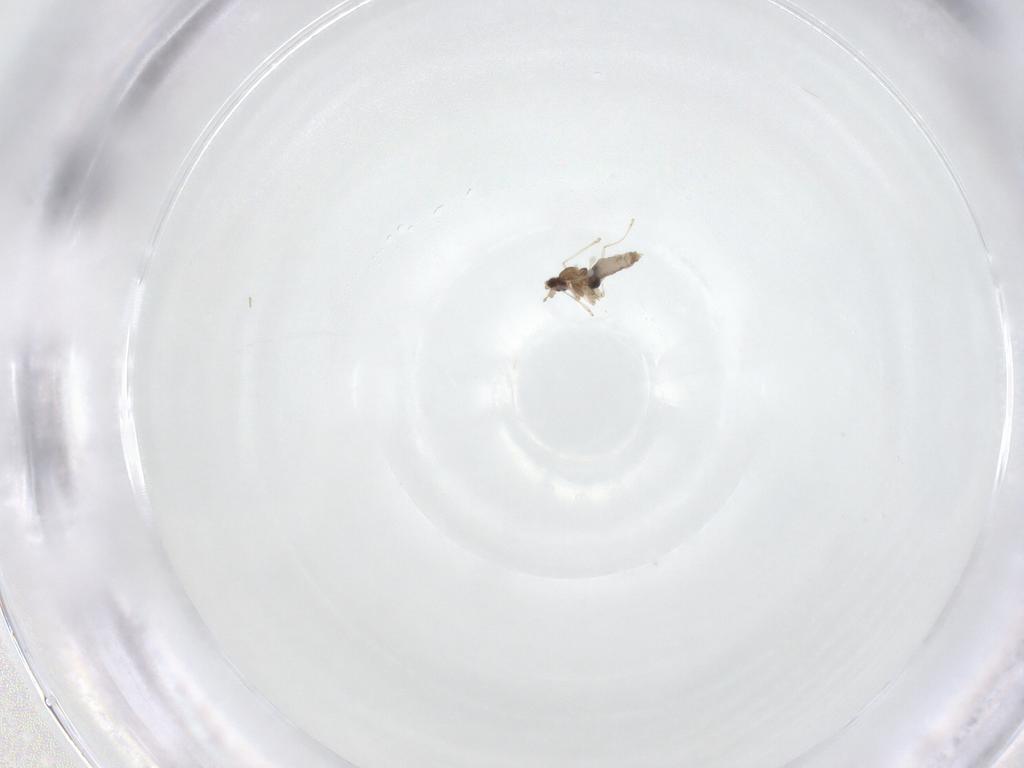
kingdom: Animalia
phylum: Arthropoda
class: Insecta
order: Diptera
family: Cecidomyiidae
